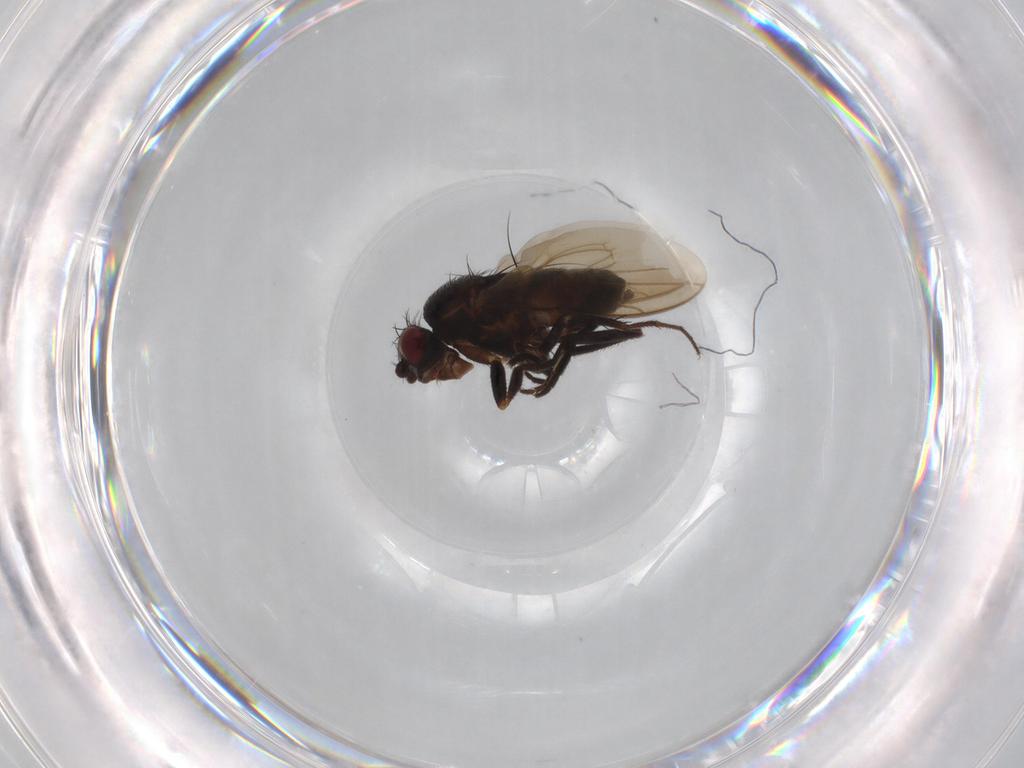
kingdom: Animalia
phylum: Arthropoda
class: Insecta
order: Diptera
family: Sphaeroceridae
